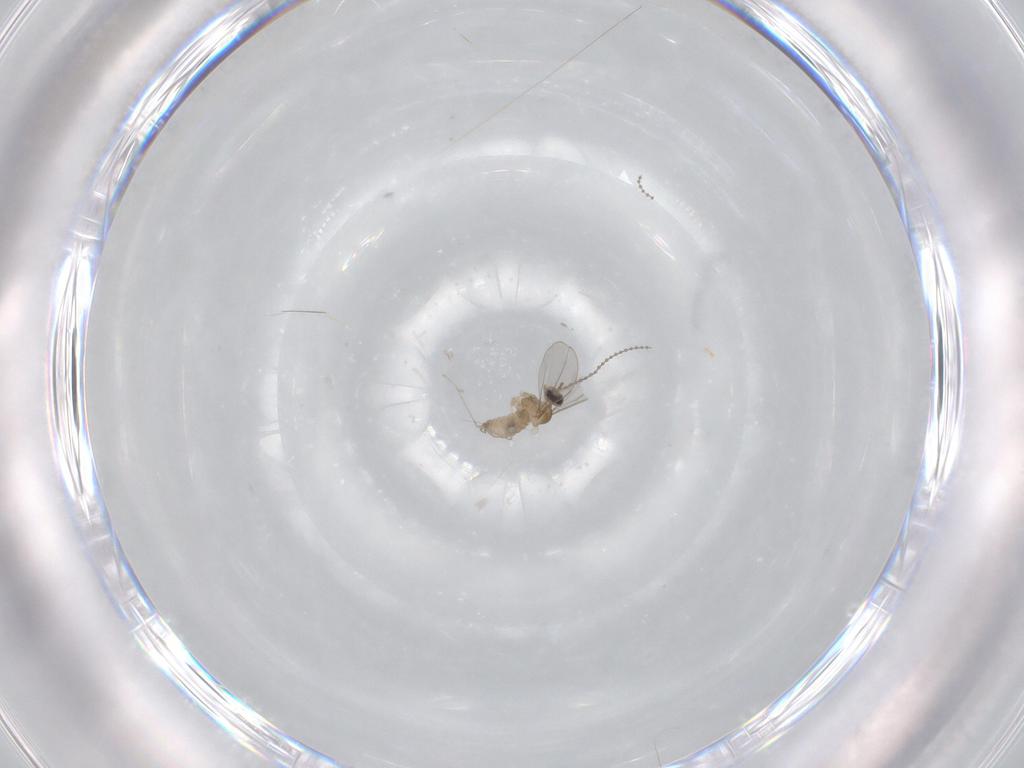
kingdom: Animalia
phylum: Arthropoda
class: Insecta
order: Diptera
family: Cecidomyiidae
